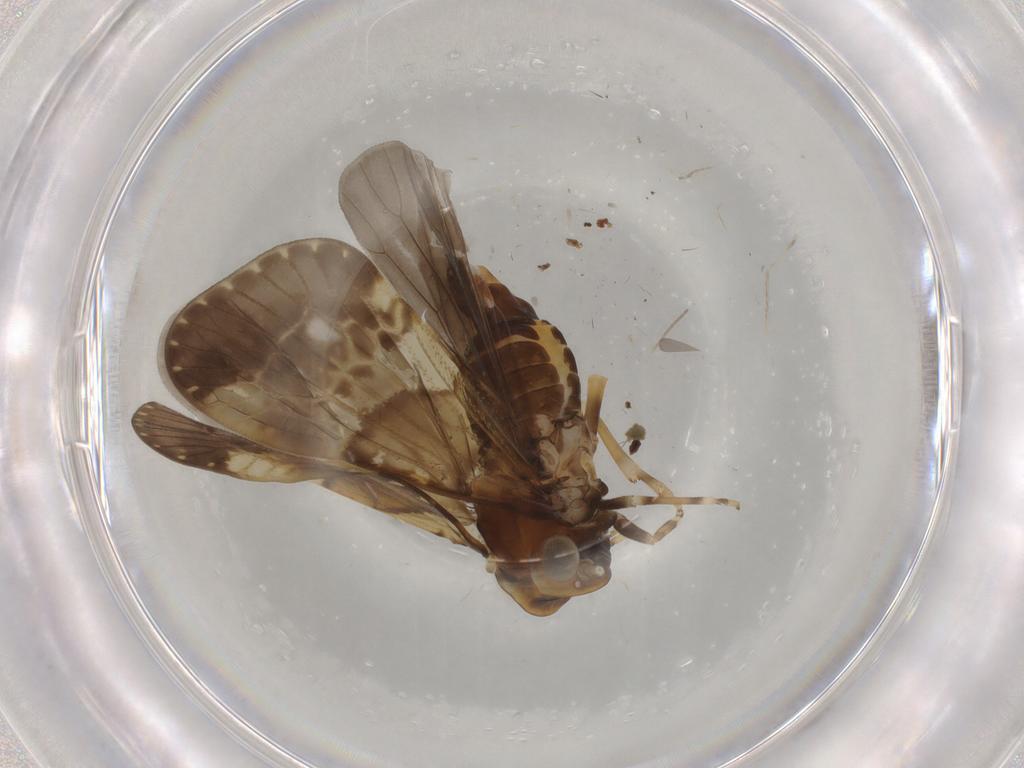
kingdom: Animalia
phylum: Arthropoda
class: Insecta
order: Hemiptera
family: Cixiidae
